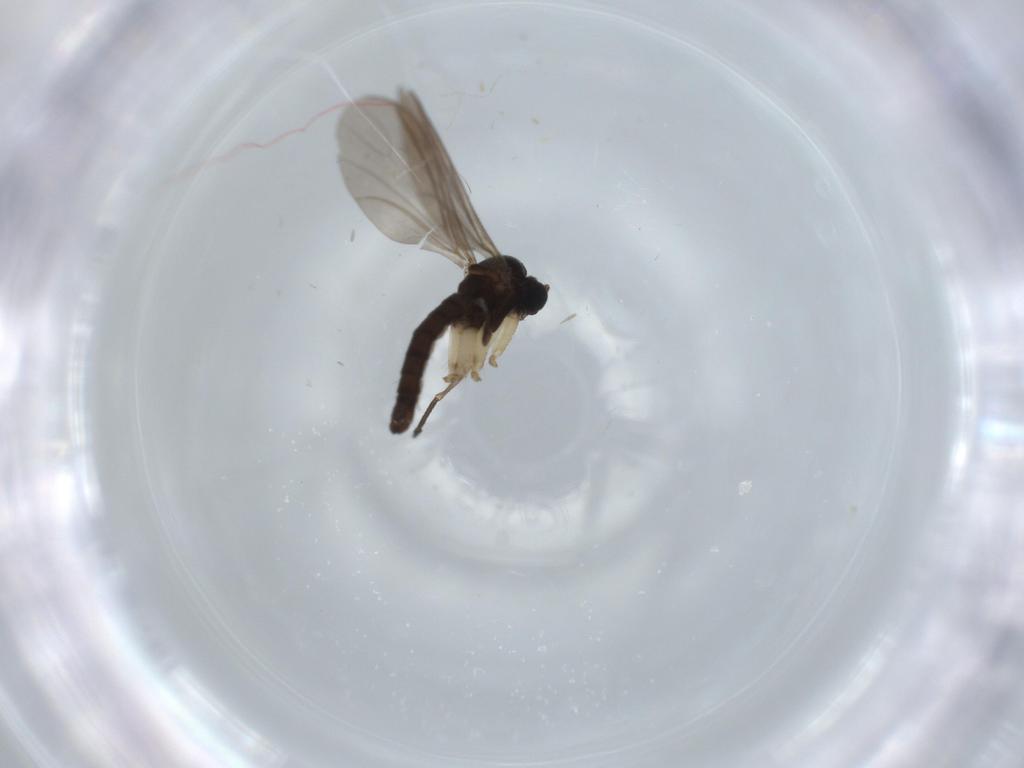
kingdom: Animalia
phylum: Arthropoda
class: Insecta
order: Diptera
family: Sciaridae
